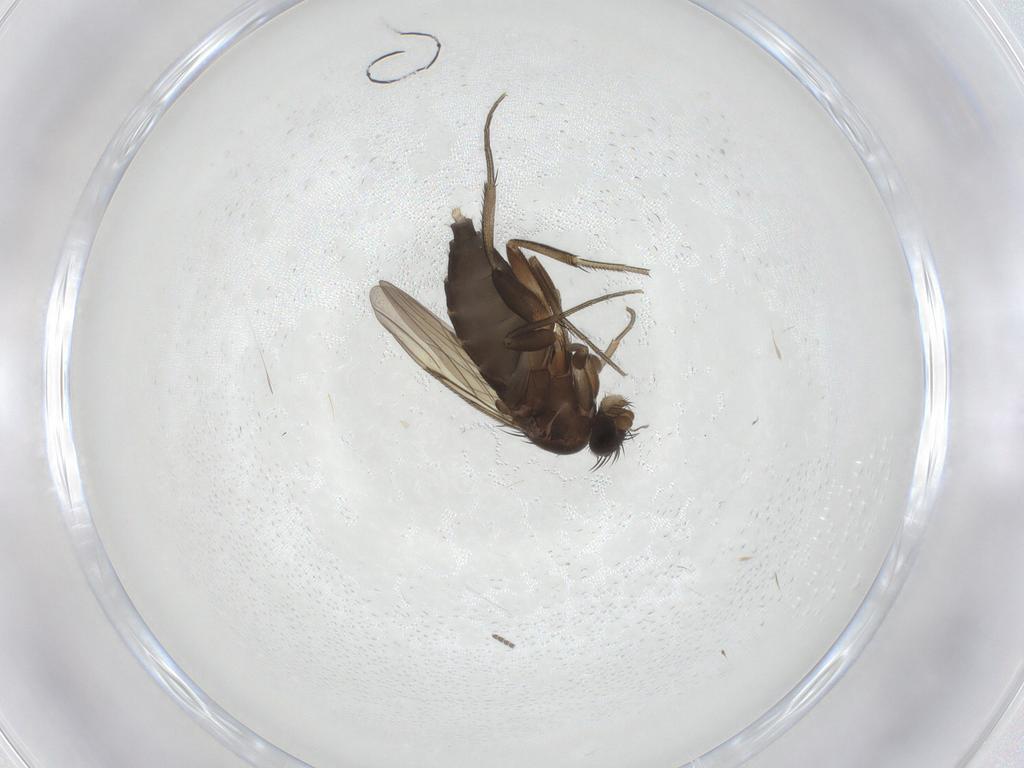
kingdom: Animalia
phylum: Arthropoda
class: Insecta
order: Diptera
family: Phoridae
